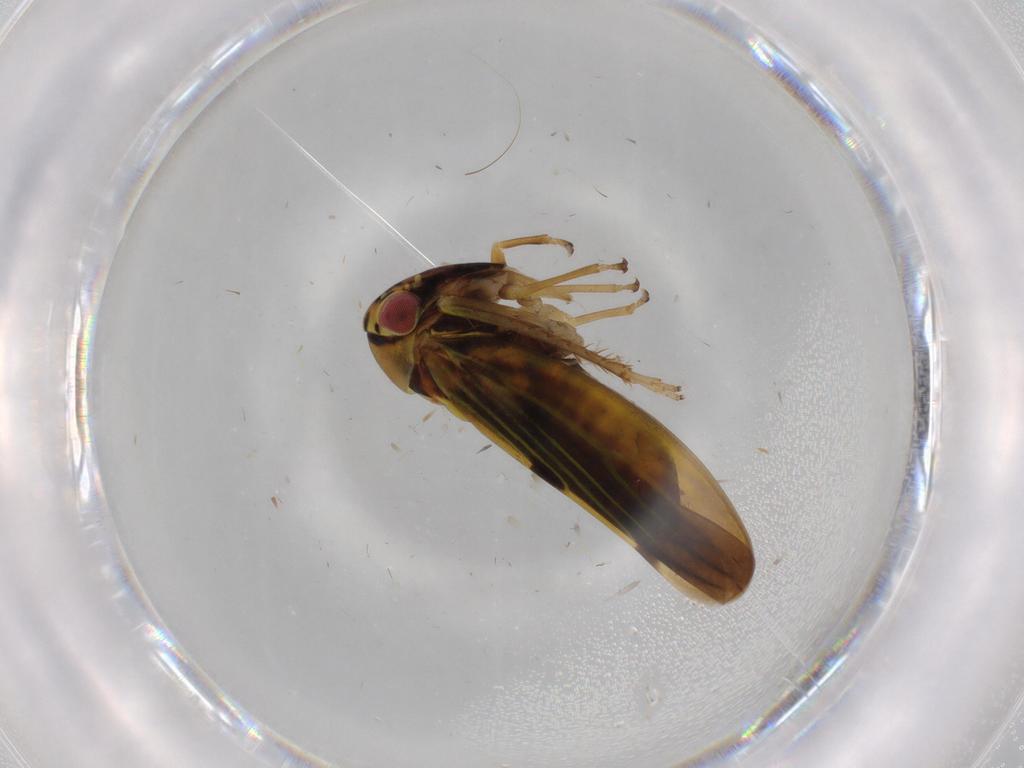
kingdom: Animalia
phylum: Arthropoda
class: Insecta
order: Hemiptera
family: Cicadellidae
